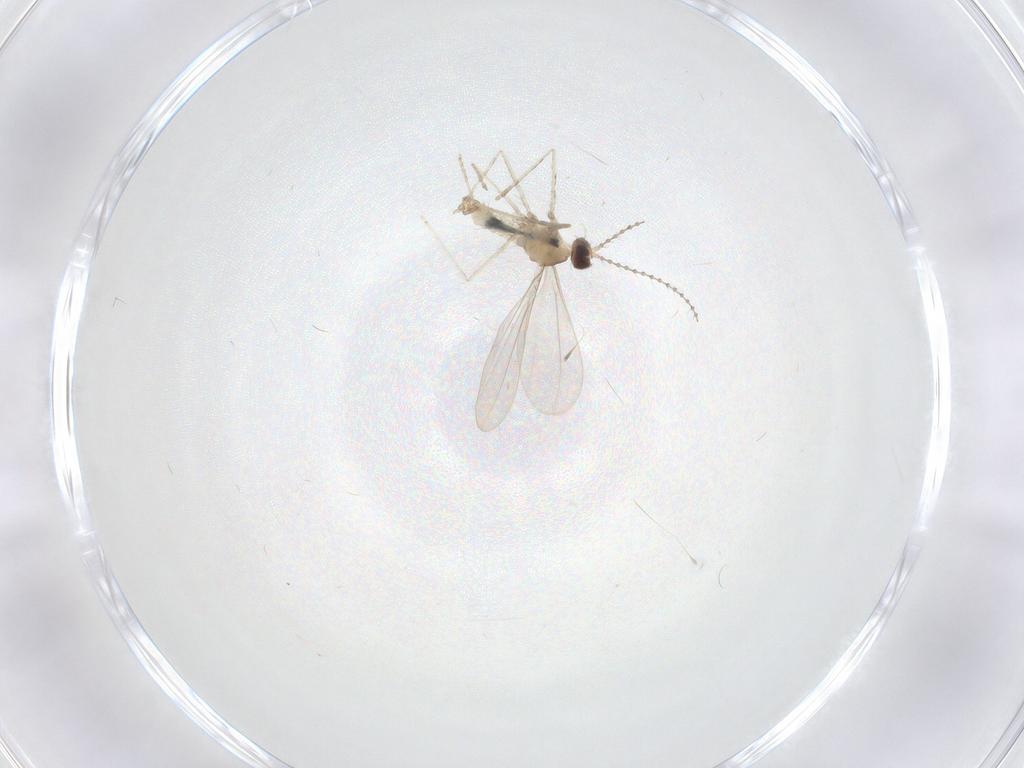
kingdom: Animalia
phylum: Arthropoda
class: Insecta
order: Diptera
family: Cecidomyiidae
